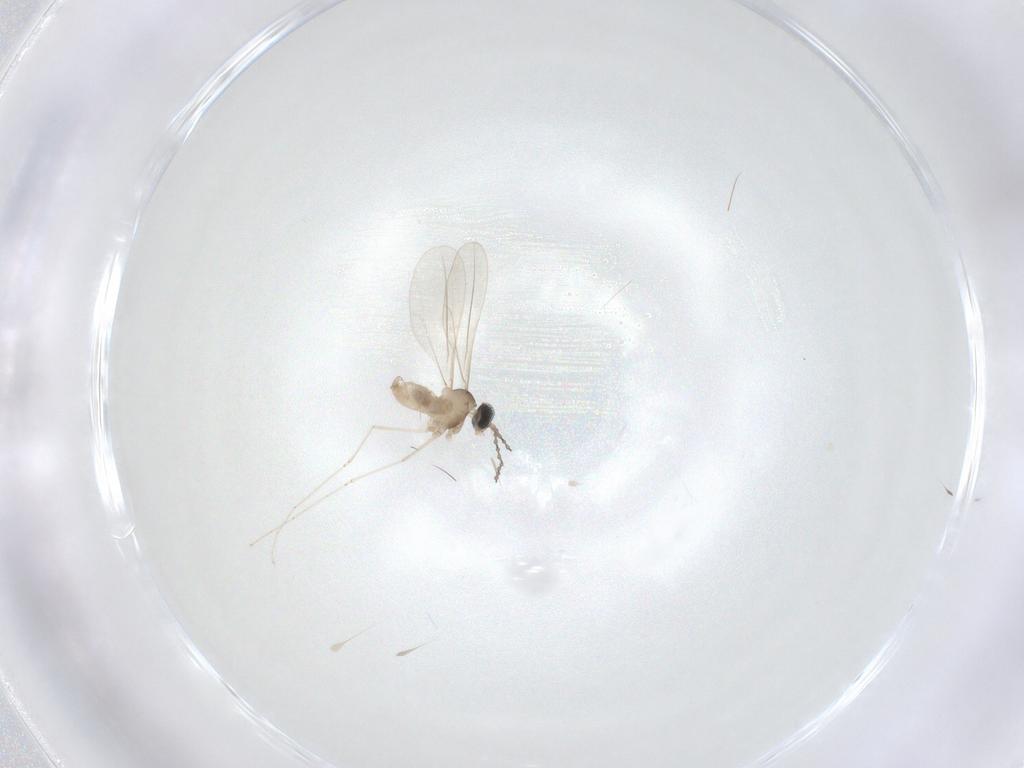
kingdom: Animalia
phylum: Arthropoda
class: Insecta
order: Diptera
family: Cecidomyiidae
